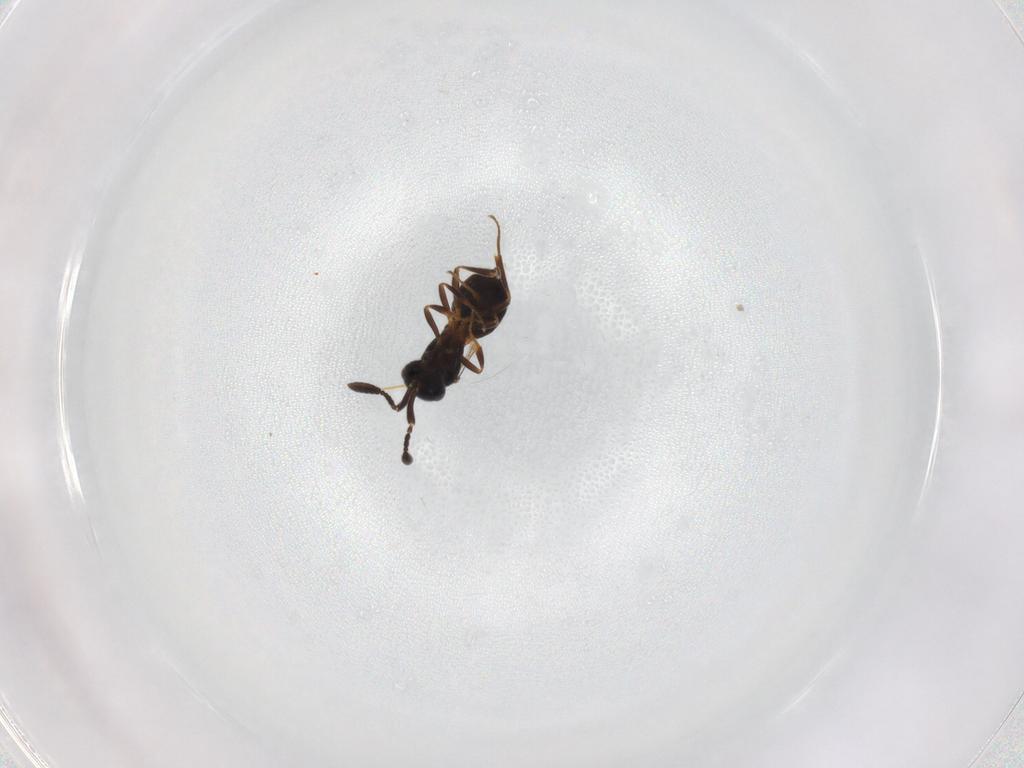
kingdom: Animalia
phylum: Arthropoda
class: Insecta
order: Hymenoptera
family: Scelionidae
